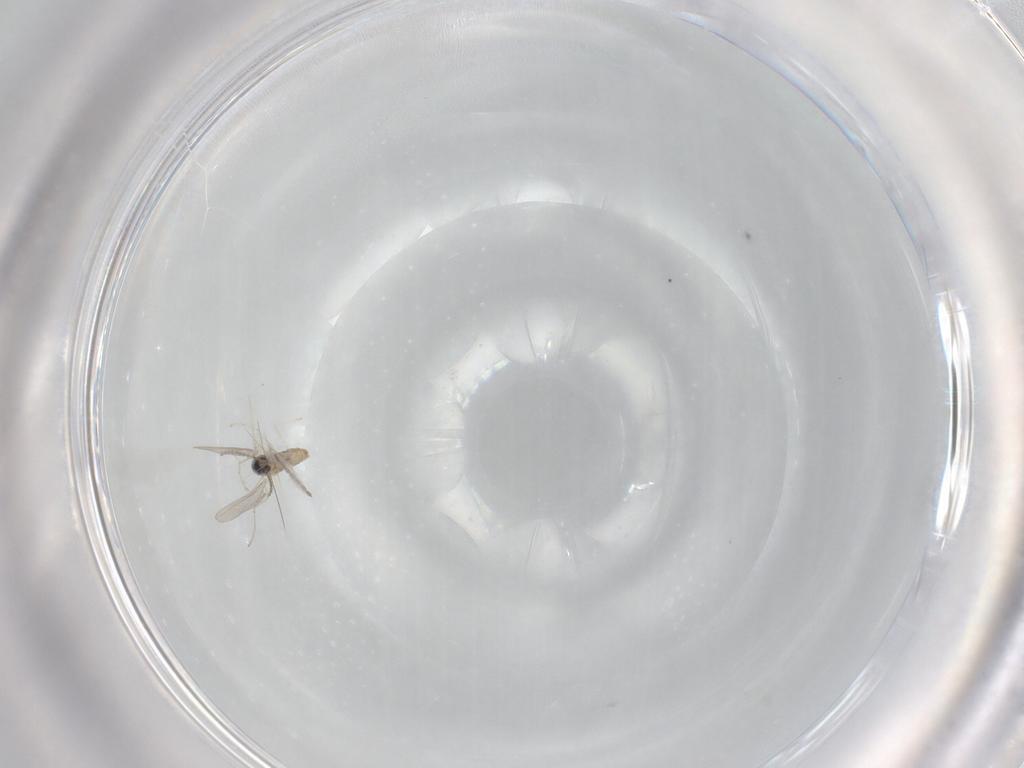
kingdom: Animalia
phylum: Arthropoda
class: Insecta
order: Diptera
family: Cecidomyiidae
